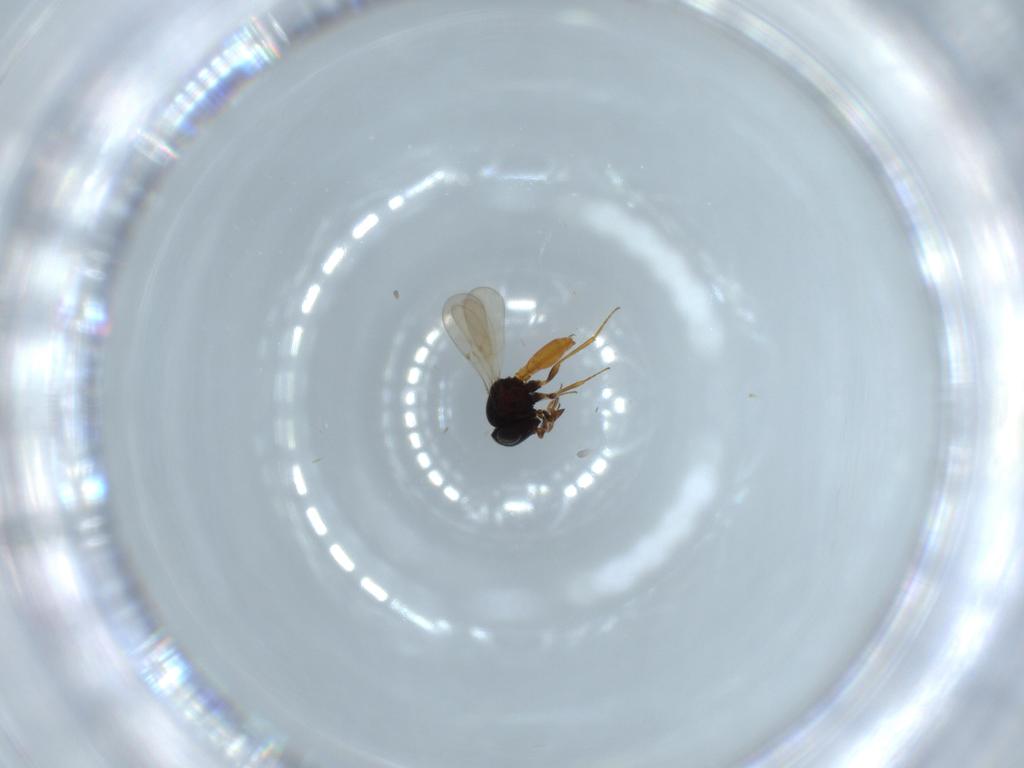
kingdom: Animalia
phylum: Arthropoda
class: Insecta
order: Hymenoptera
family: Scelionidae
